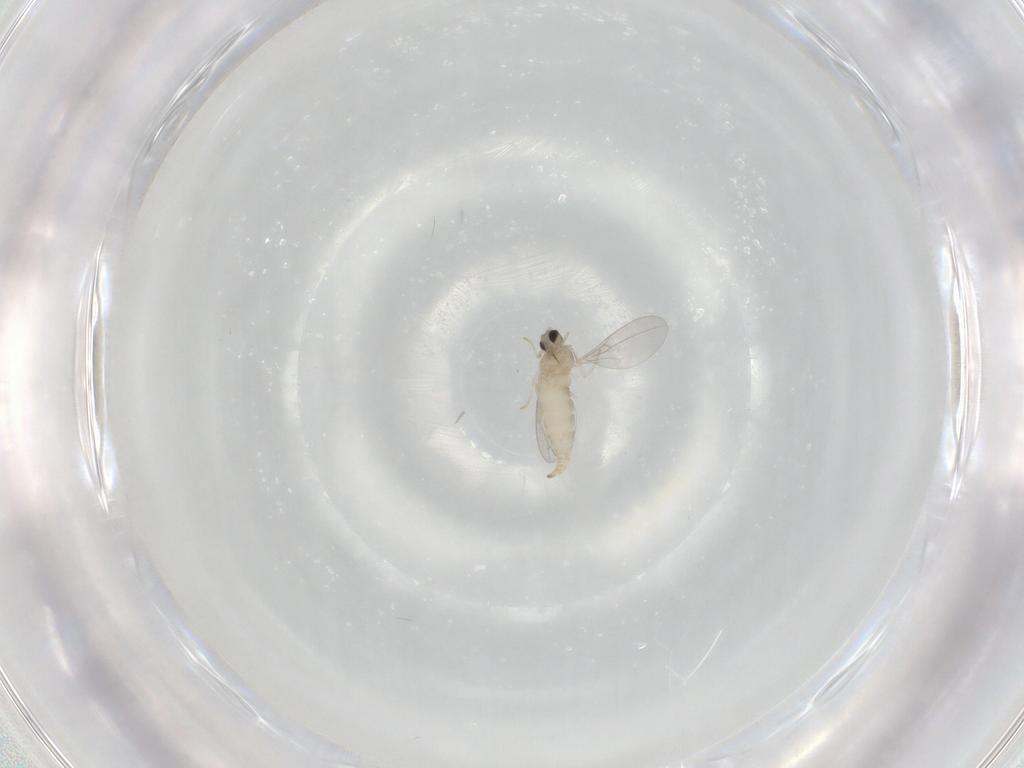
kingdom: Animalia
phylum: Arthropoda
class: Insecta
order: Diptera
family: Cecidomyiidae
